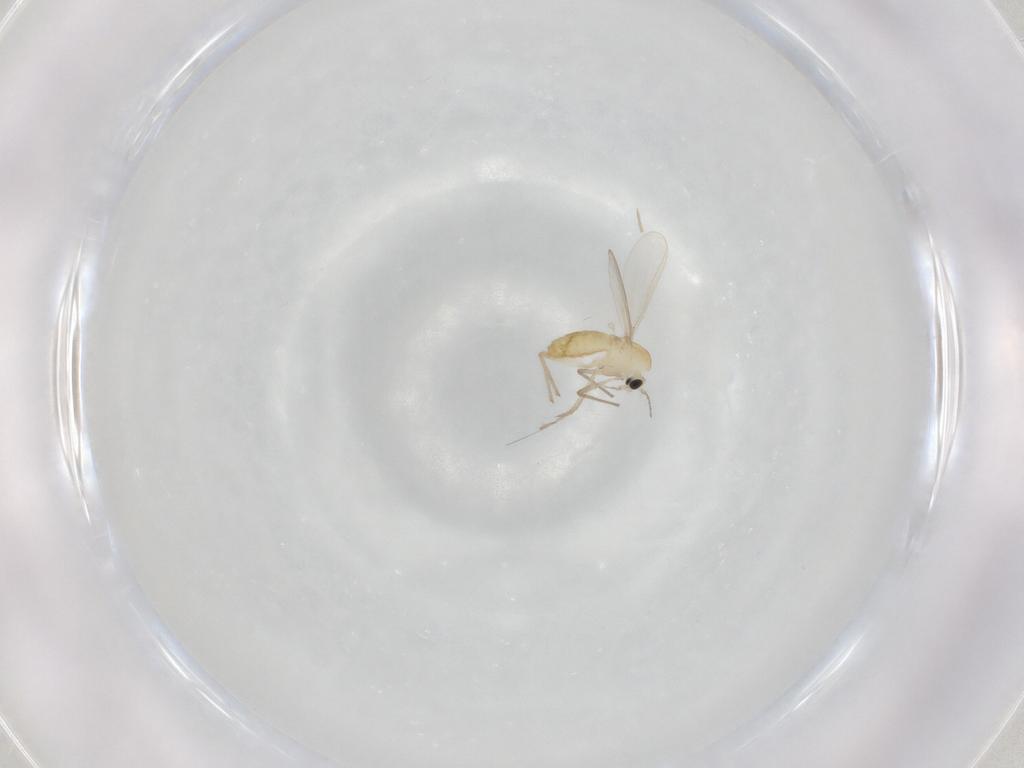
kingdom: Animalia
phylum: Arthropoda
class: Insecta
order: Diptera
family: Chironomidae
